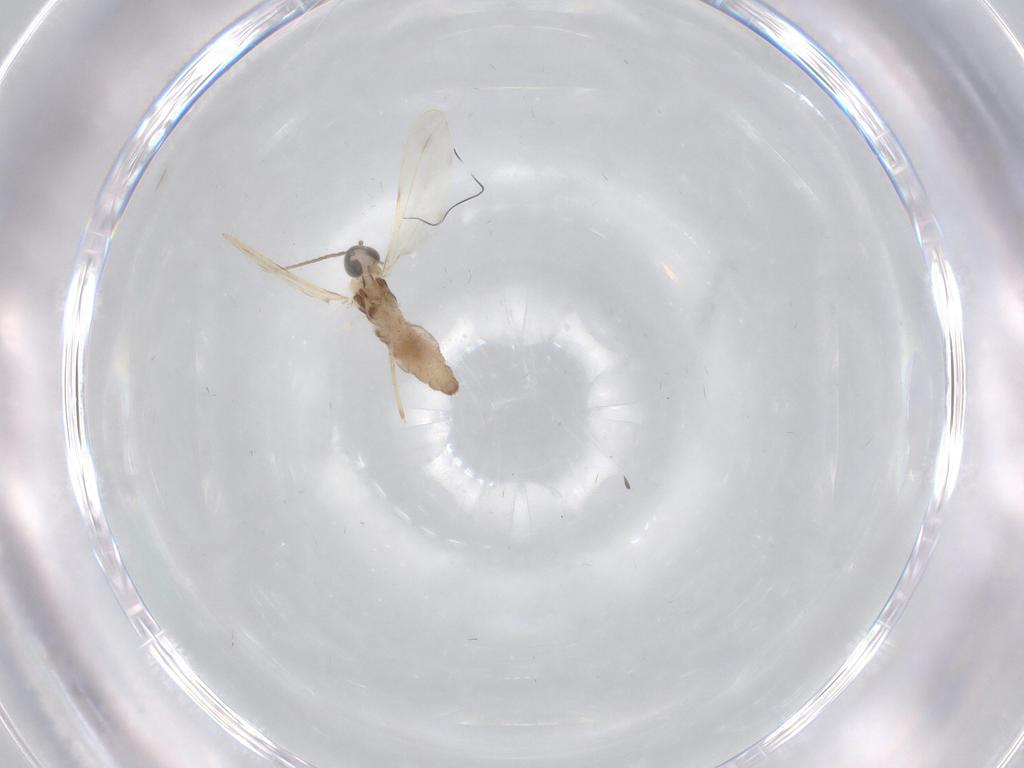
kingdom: Animalia
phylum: Arthropoda
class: Insecta
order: Diptera
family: Cecidomyiidae
